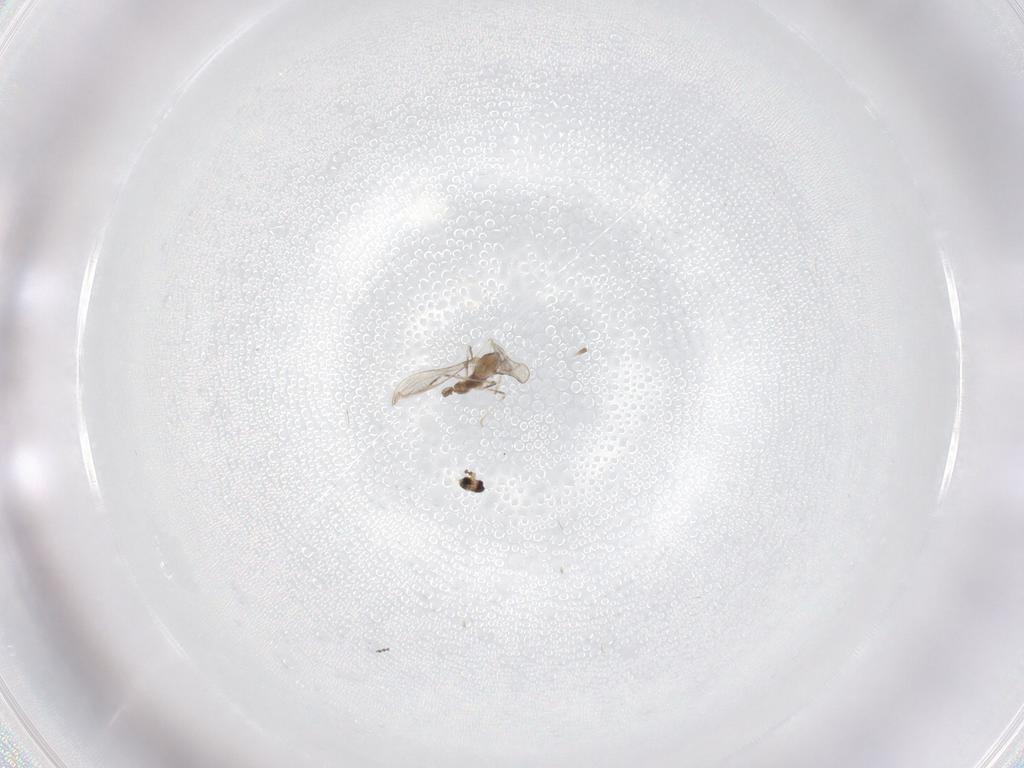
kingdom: Animalia
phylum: Arthropoda
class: Insecta
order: Diptera
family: Cecidomyiidae
